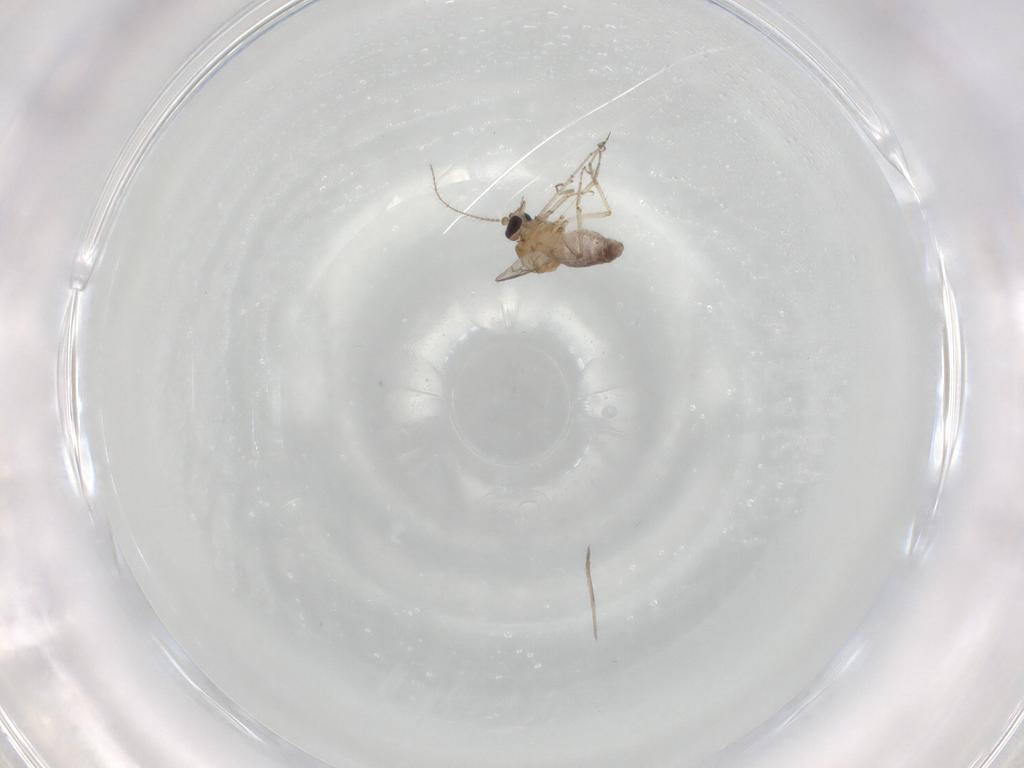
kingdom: Animalia
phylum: Arthropoda
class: Insecta
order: Diptera
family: Ceratopogonidae
